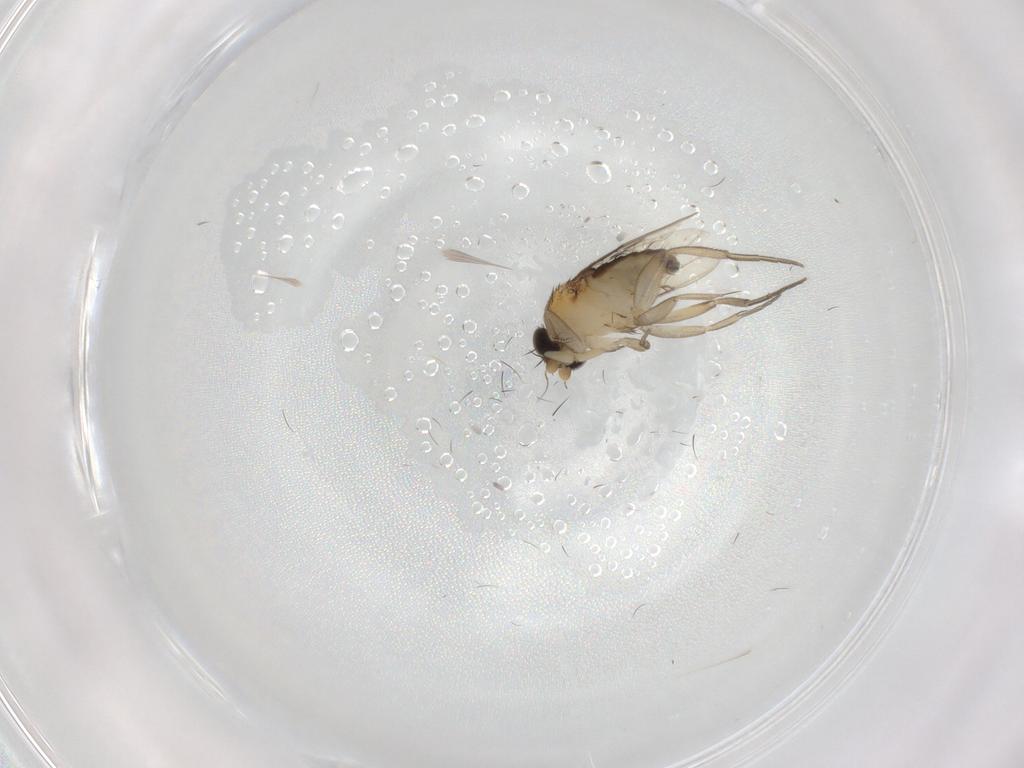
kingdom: Animalia
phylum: Arthropoda
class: Insecta
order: Diptera
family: Phoridae
